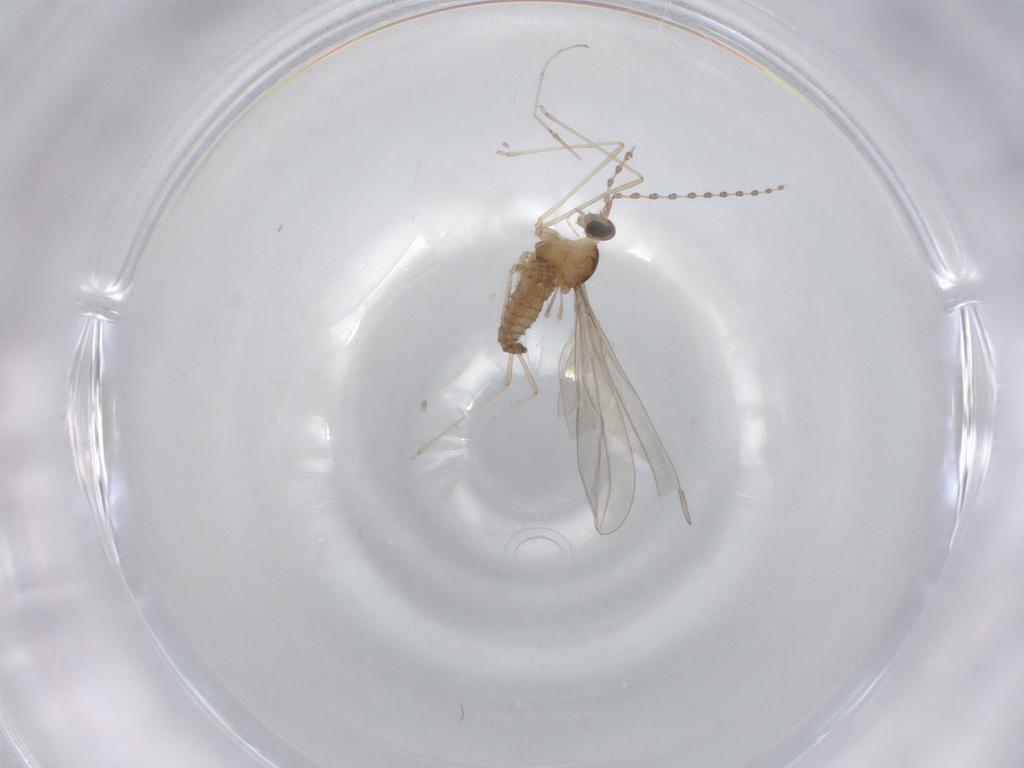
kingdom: Animalia
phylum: Arthropoda
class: Insecta
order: Diptera
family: Cecidomyiidae
